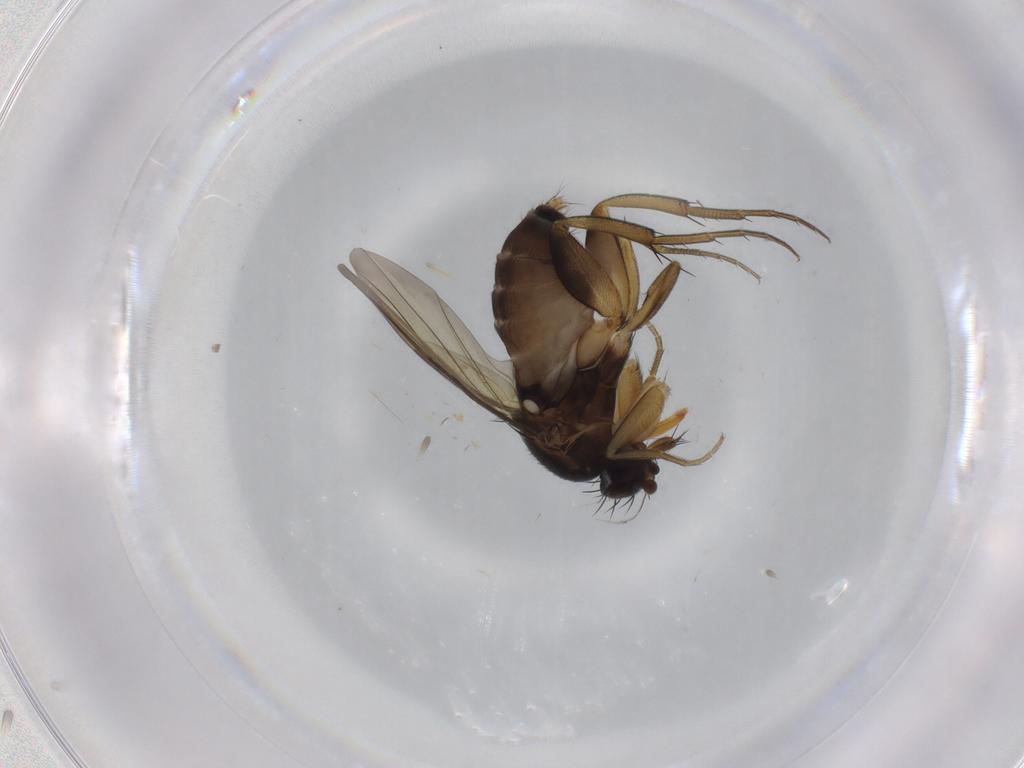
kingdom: Animalia
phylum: Arthropoda
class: Insecta
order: Diptera
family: Phoridae
